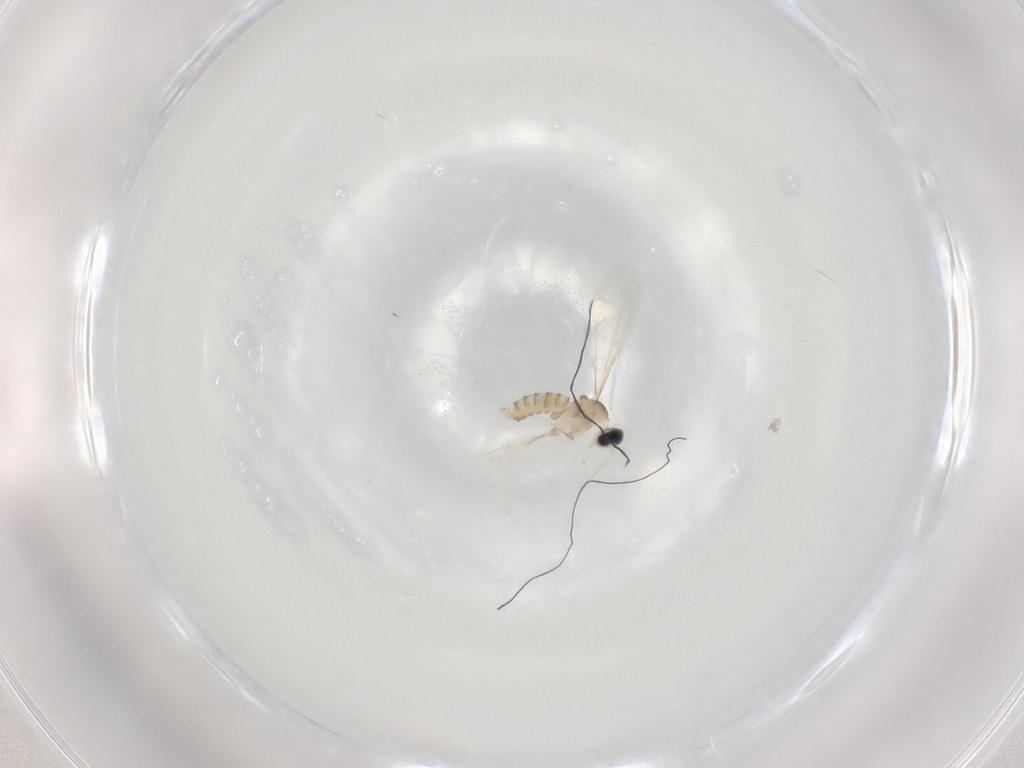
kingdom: Animalia
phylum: Arthropoda
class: Insecta
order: Diptera
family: Cecidomyiidae
